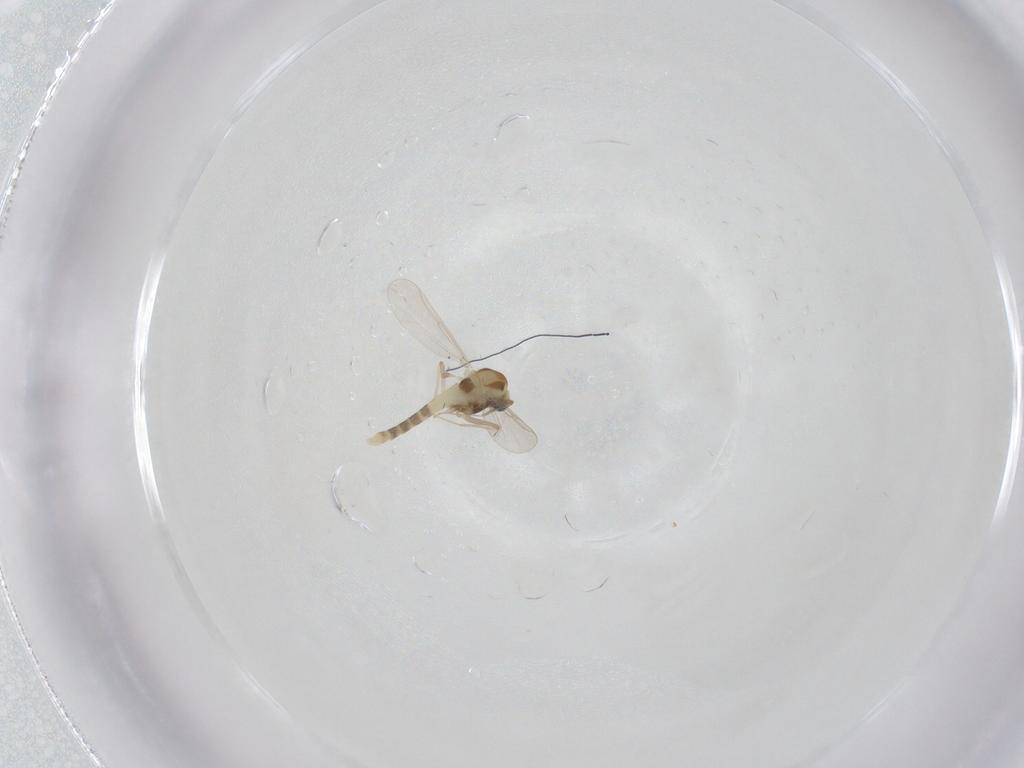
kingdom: Animalia
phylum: Arthropoda
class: Insecta
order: Diptera
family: Chironomidae
